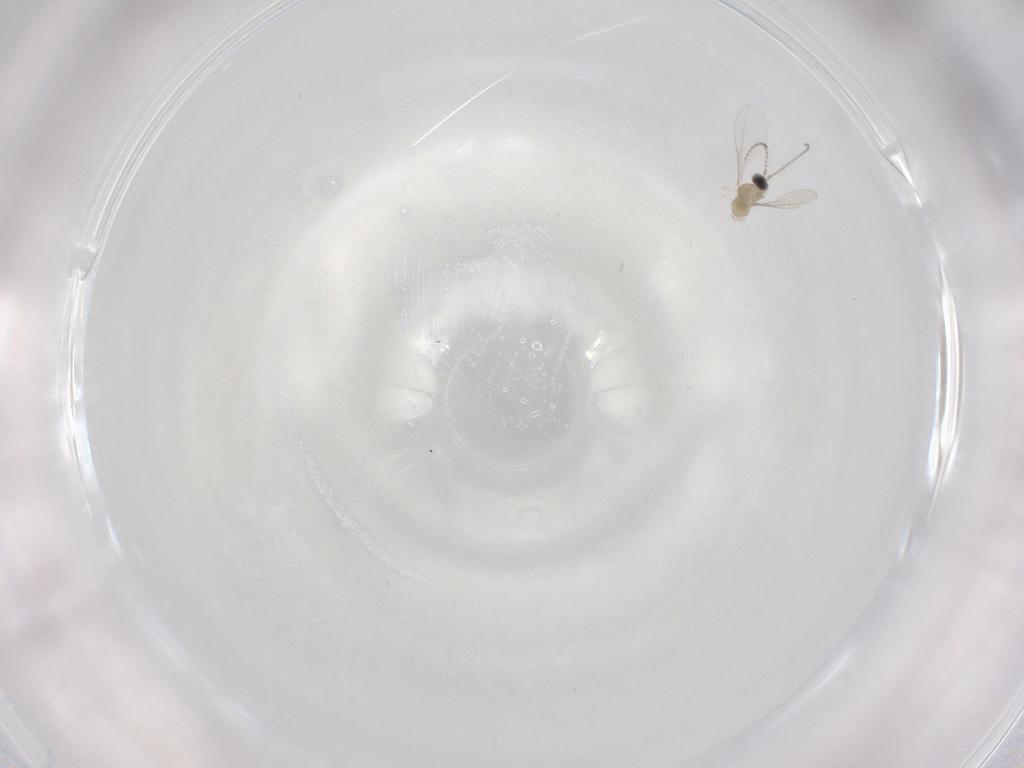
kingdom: Animalia
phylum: Arthropoda
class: Insecta
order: Diptera
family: Cecidomyiidae
